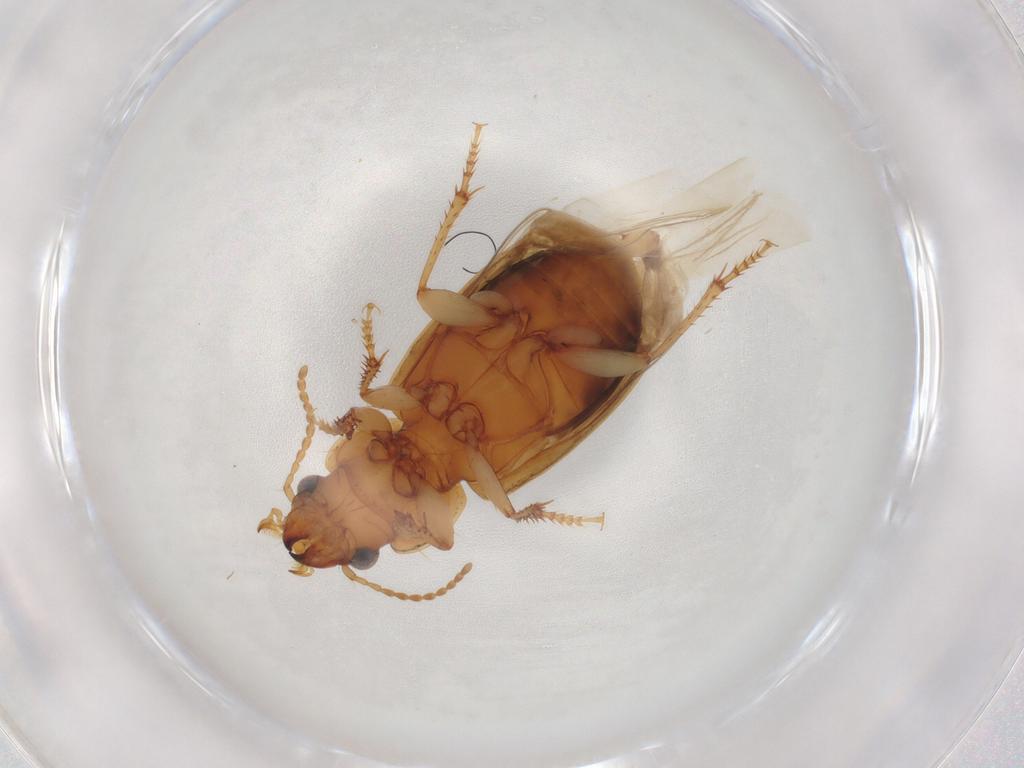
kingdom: Animalia
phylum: Arthropoda
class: Insecta
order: Coleoptera
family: Carabidae
